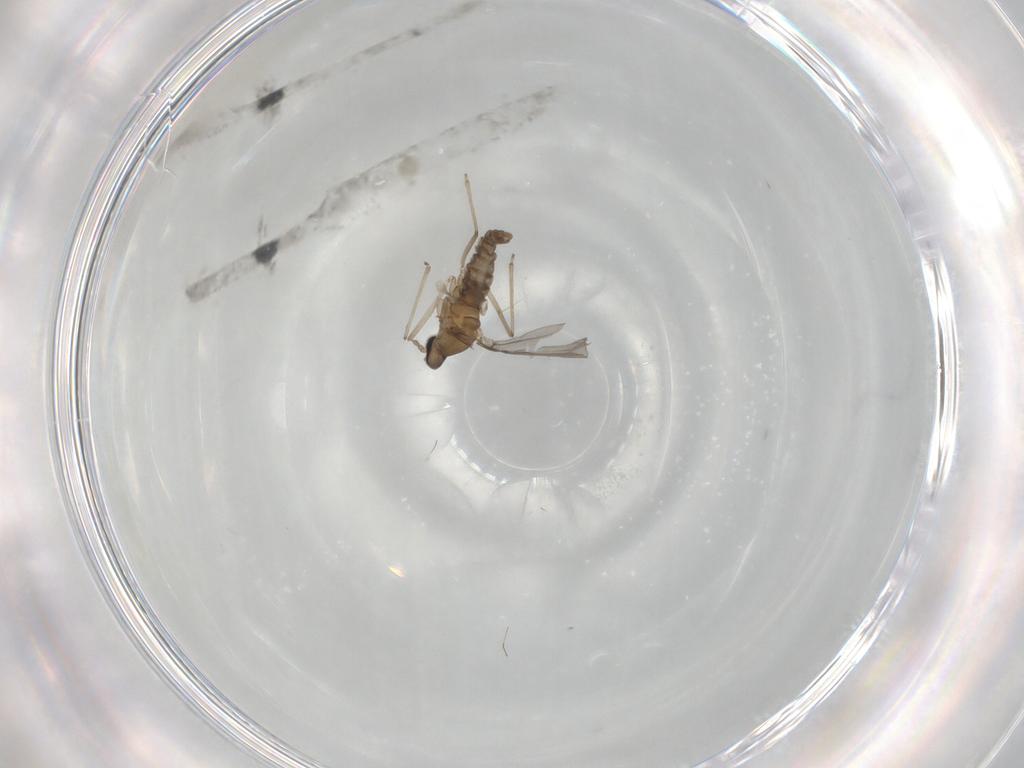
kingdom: Animalia
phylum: Arthropoda
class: Insecta
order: Diptera
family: Cecidomyiidae
